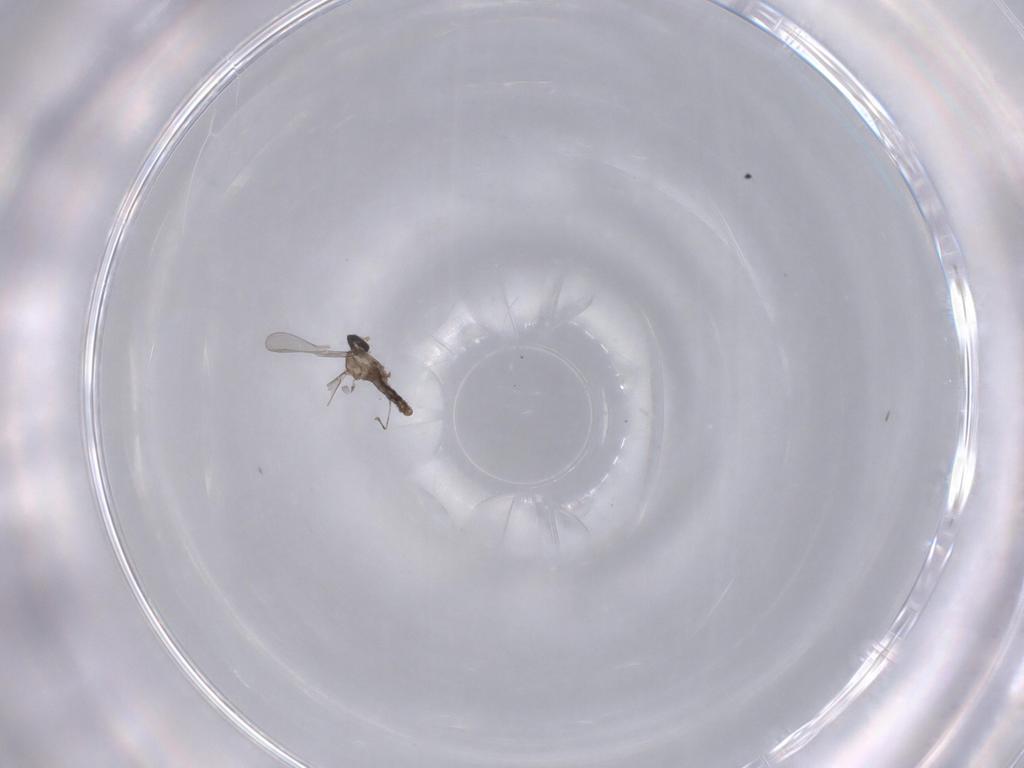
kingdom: Animalia
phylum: Arthropoda
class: Insecta
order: Diptera
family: Cecidomyiidae
